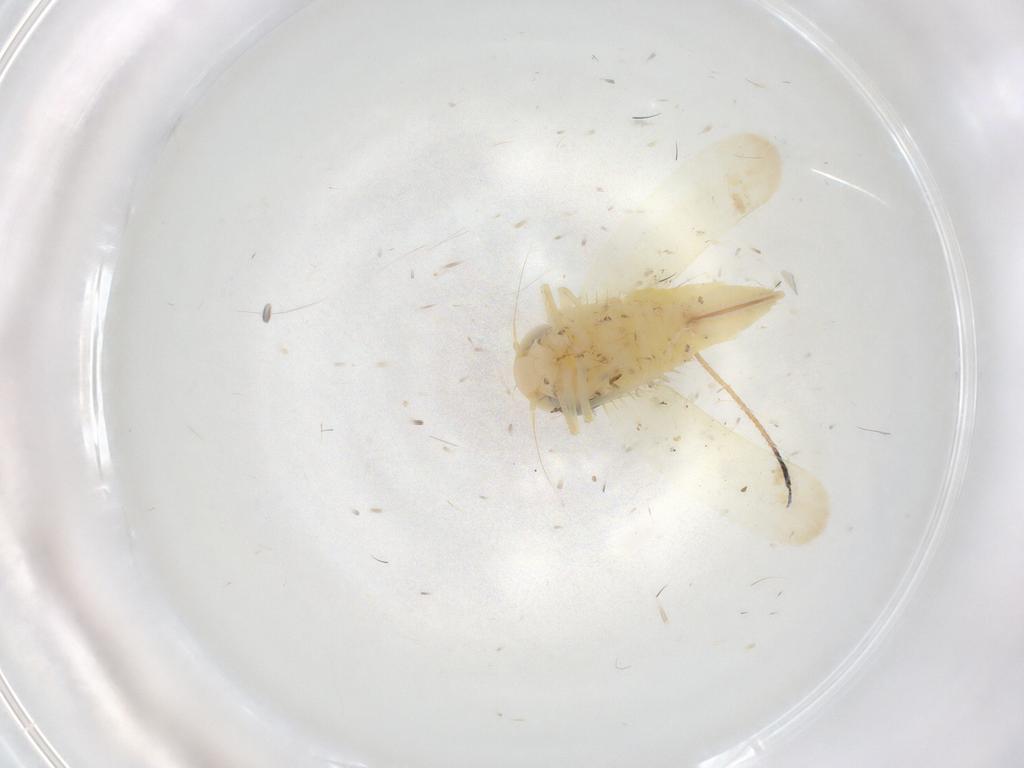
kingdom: Animalia
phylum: Arthropoda
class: Insecta
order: Hemiptera
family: Cicadellidae
